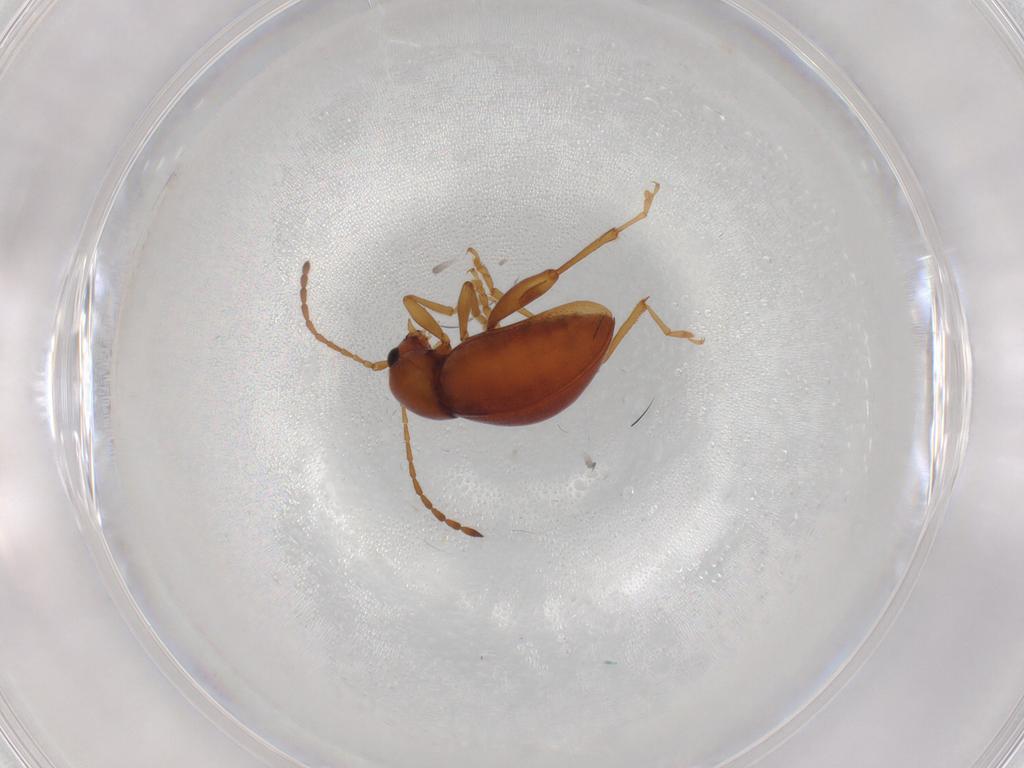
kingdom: Animalia
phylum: Arthropoda
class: Insecta
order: Coleoptera
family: Chrysomelidae
